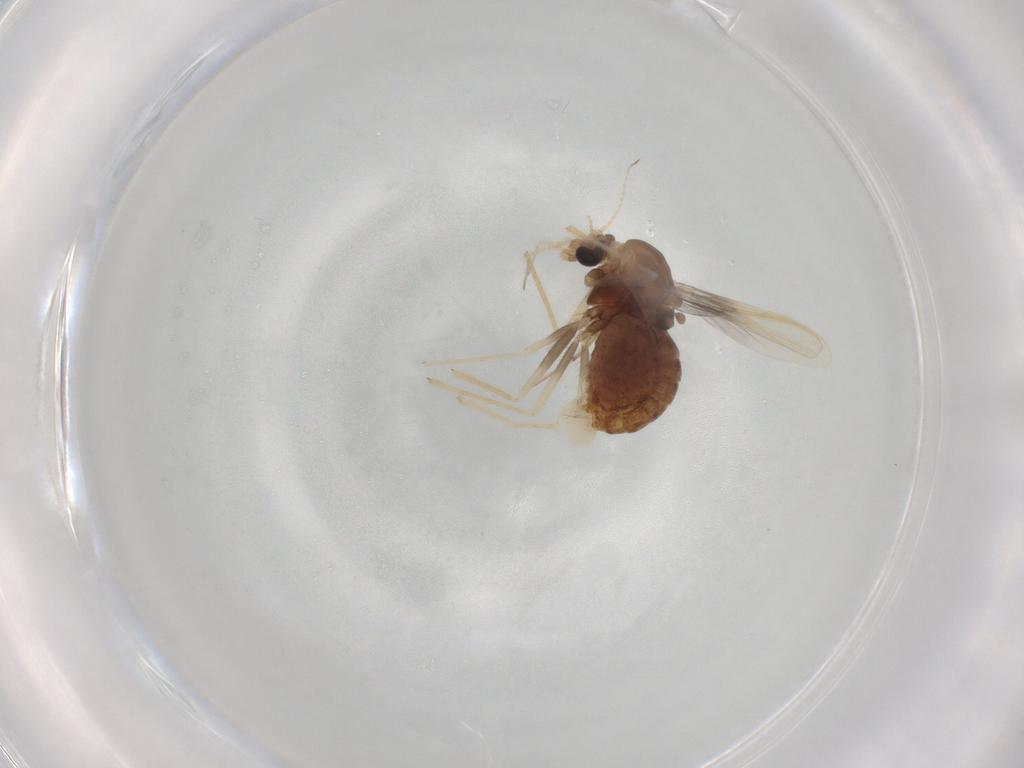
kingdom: Animalia
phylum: Arthropoda
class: Insecta
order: Diptera
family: Chironomidae
